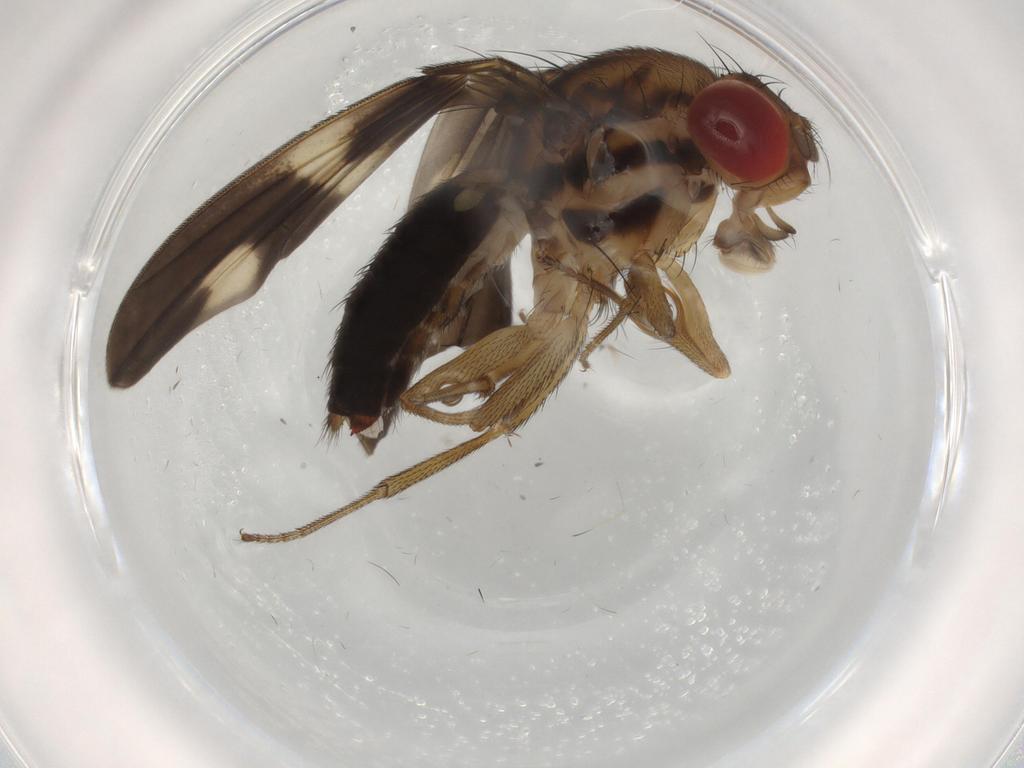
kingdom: Animalia
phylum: Arthropoda
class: Insecta
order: Diptera
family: Drosophilidae
